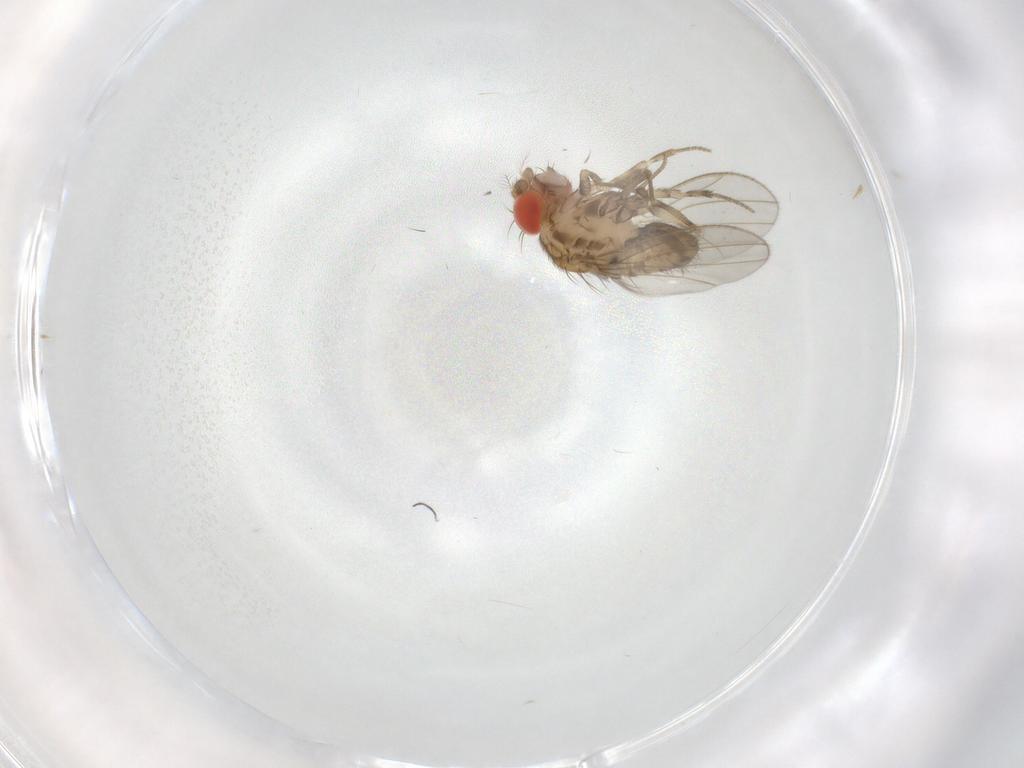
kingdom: Animalia
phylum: Arthropoda
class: Insecta
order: Diptera
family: Drosophilidae
